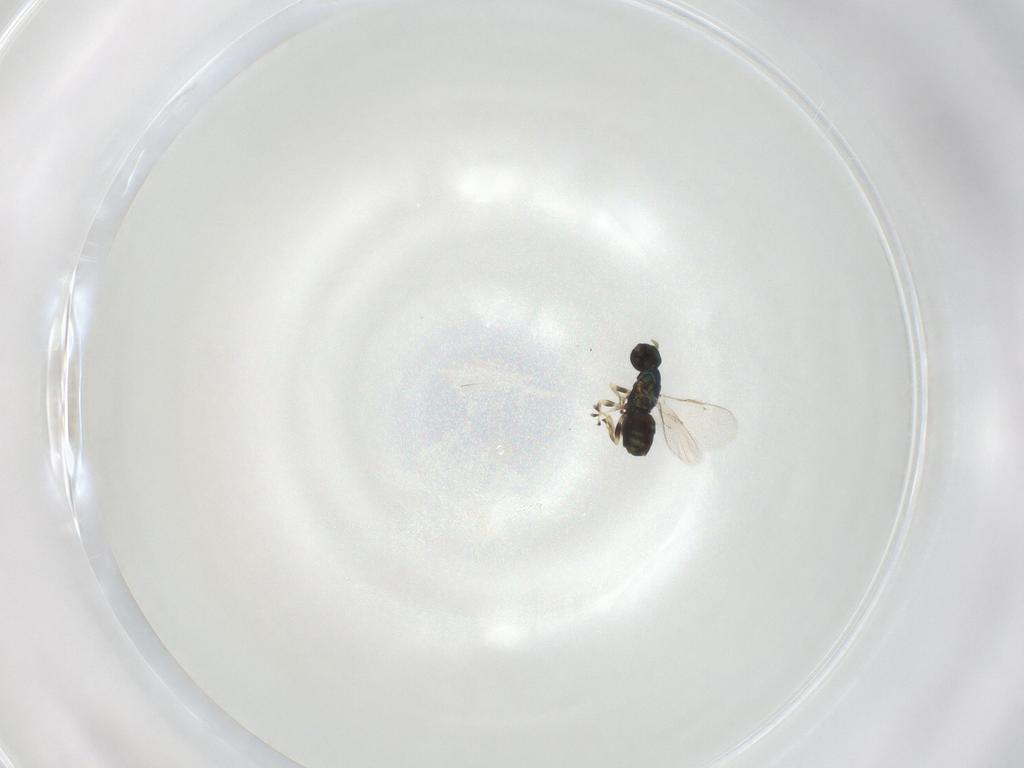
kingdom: Animalia
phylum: Arthropoda
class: Insecta
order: Hymenoptera
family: Eulophidae
